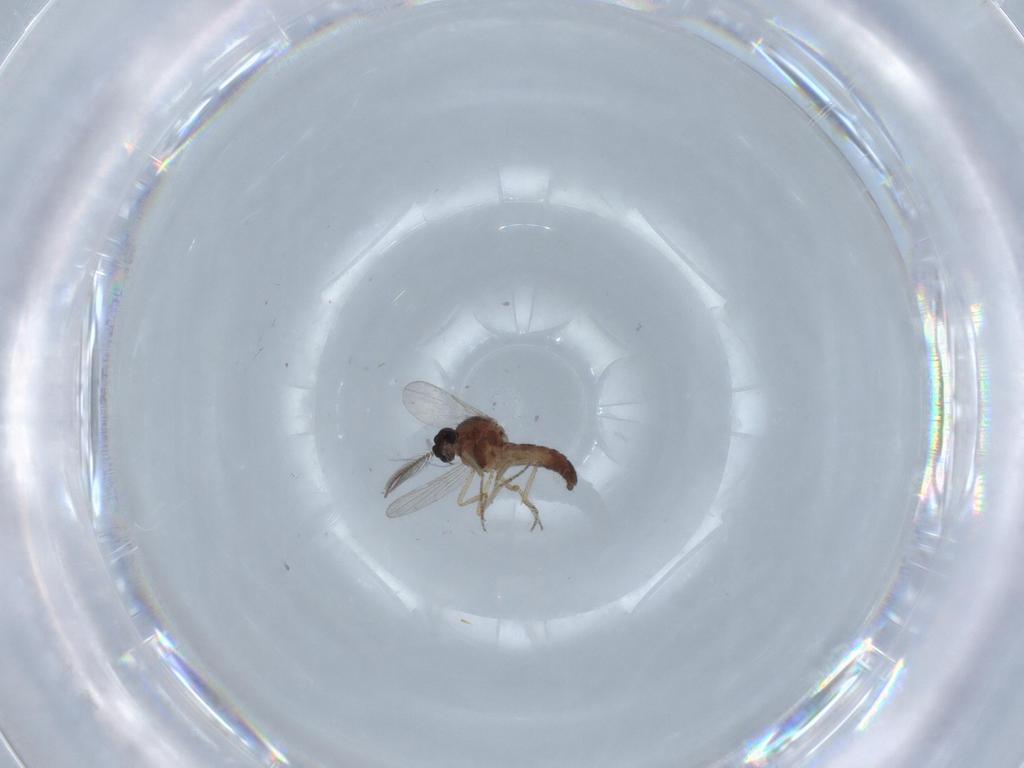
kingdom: Animalia
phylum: Arthropoda
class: Insecta
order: Diptera
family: Ceratopogonidae
